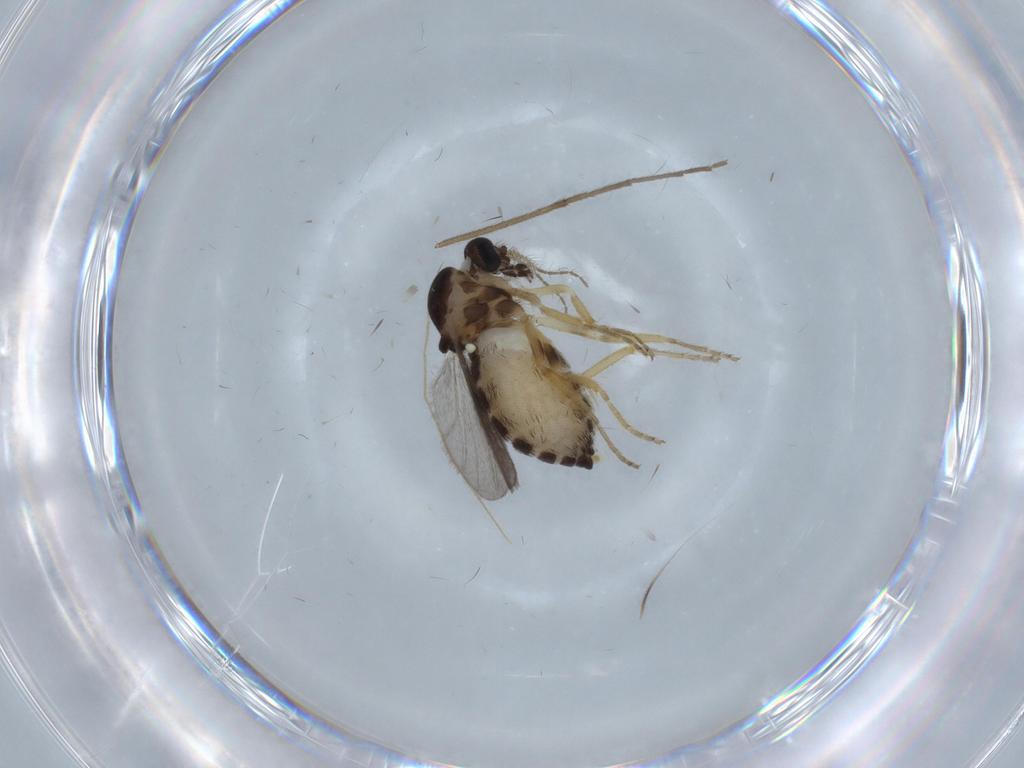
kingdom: Animalia
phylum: Arthropoda
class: Insecta
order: Diptera
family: Ceratopogonidae
